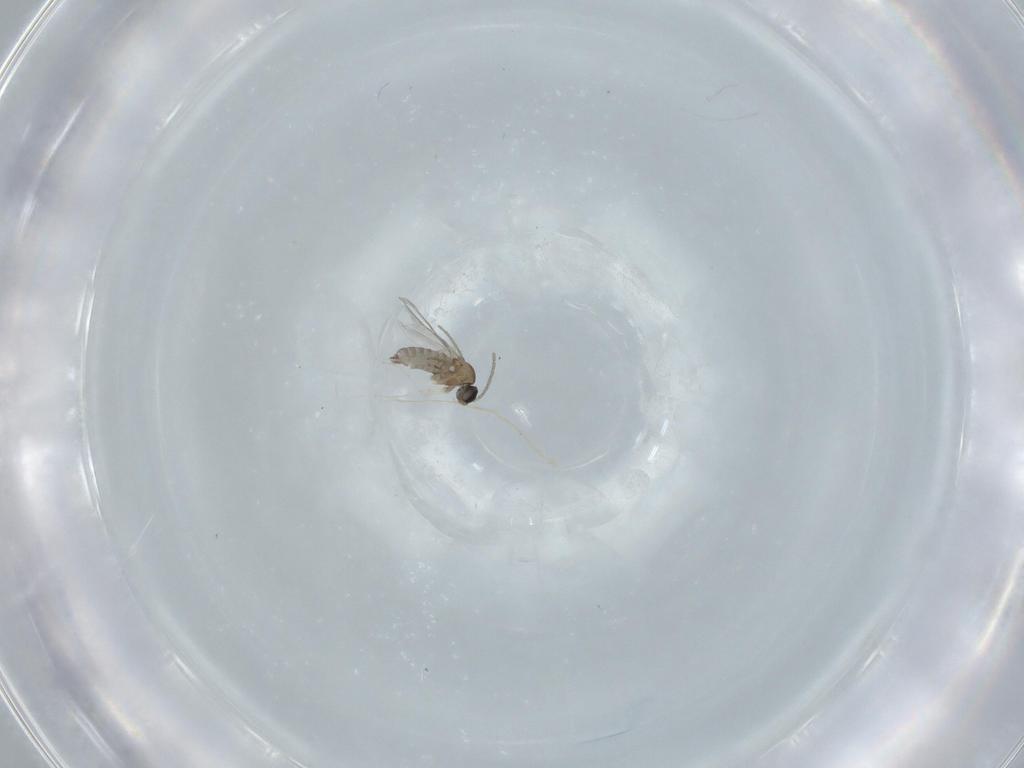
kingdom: Animalia
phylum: Arthropoda
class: Insecta
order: Diptera
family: Cecidomyiidae
